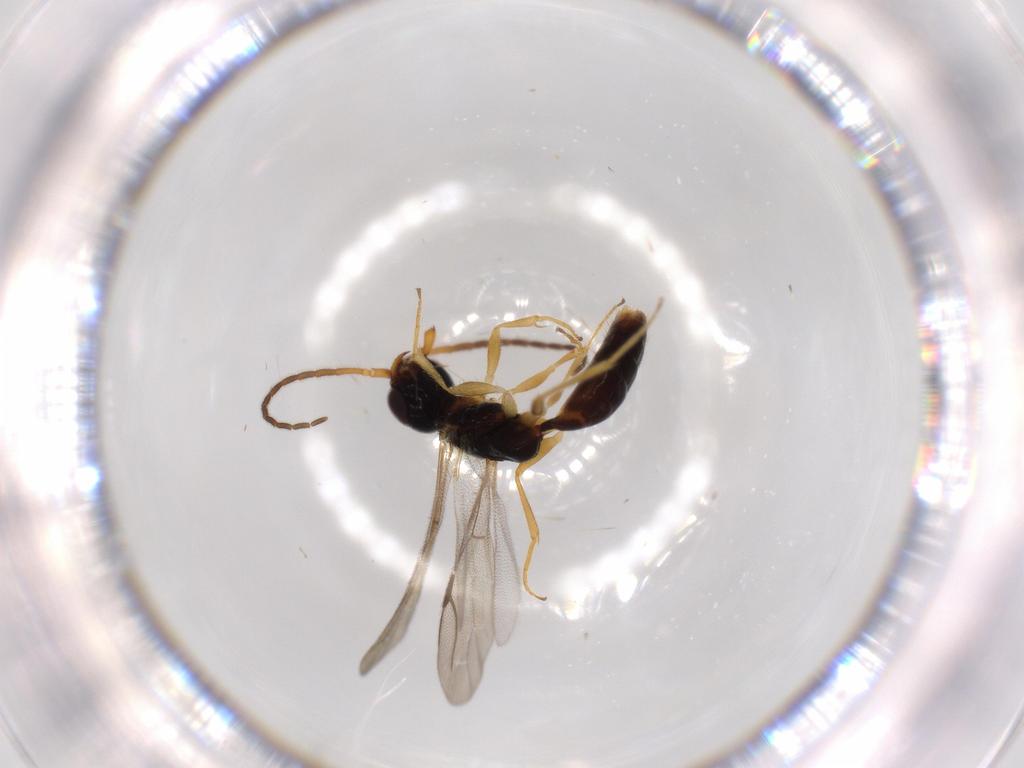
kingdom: Animalia
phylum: Arthropoda
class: Insecta
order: Hymenoptera
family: Bethylidae
